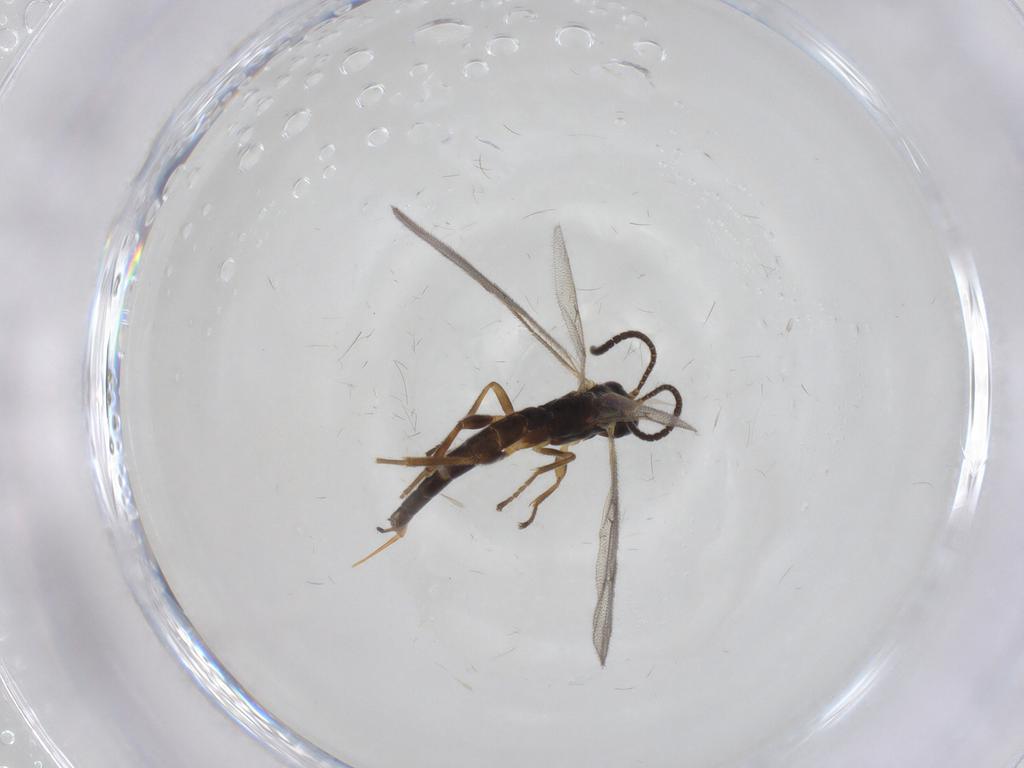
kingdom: Animalia
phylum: Arthropoda
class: Insecta
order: Hymenoptera
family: Ichneumonidae
